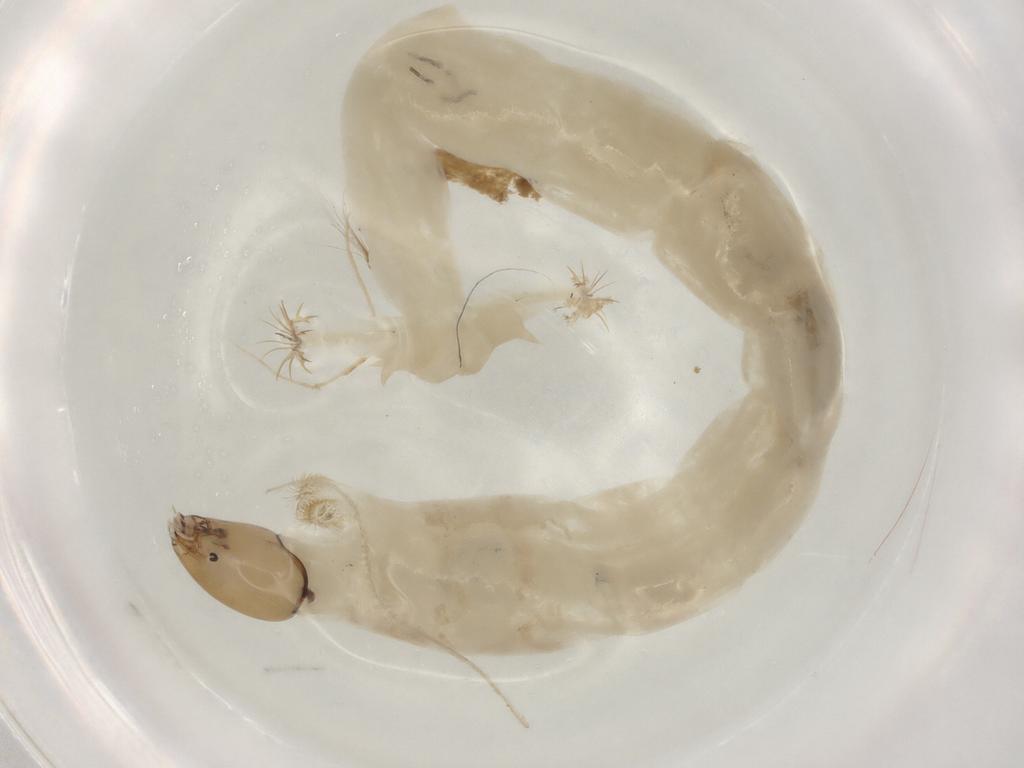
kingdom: Animalia
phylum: Arthropoda
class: Insecta
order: Diptera
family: Chironomidae
